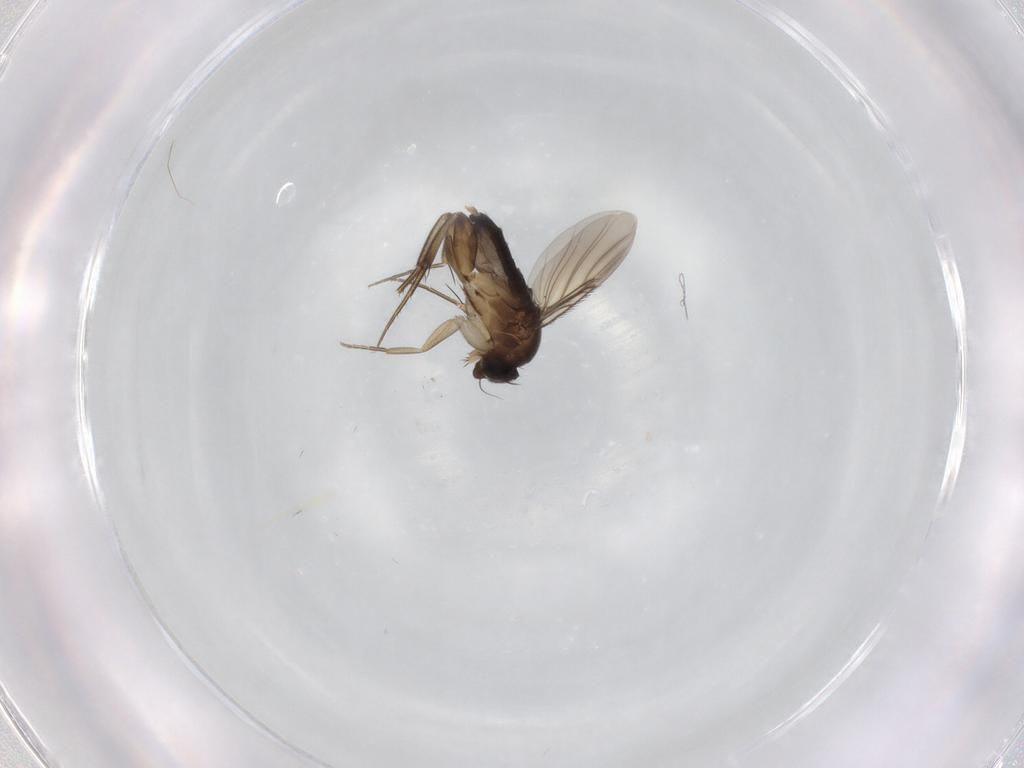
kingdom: Animalia
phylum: Arthropoda
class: Insecta
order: Diptera
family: Phoridae
